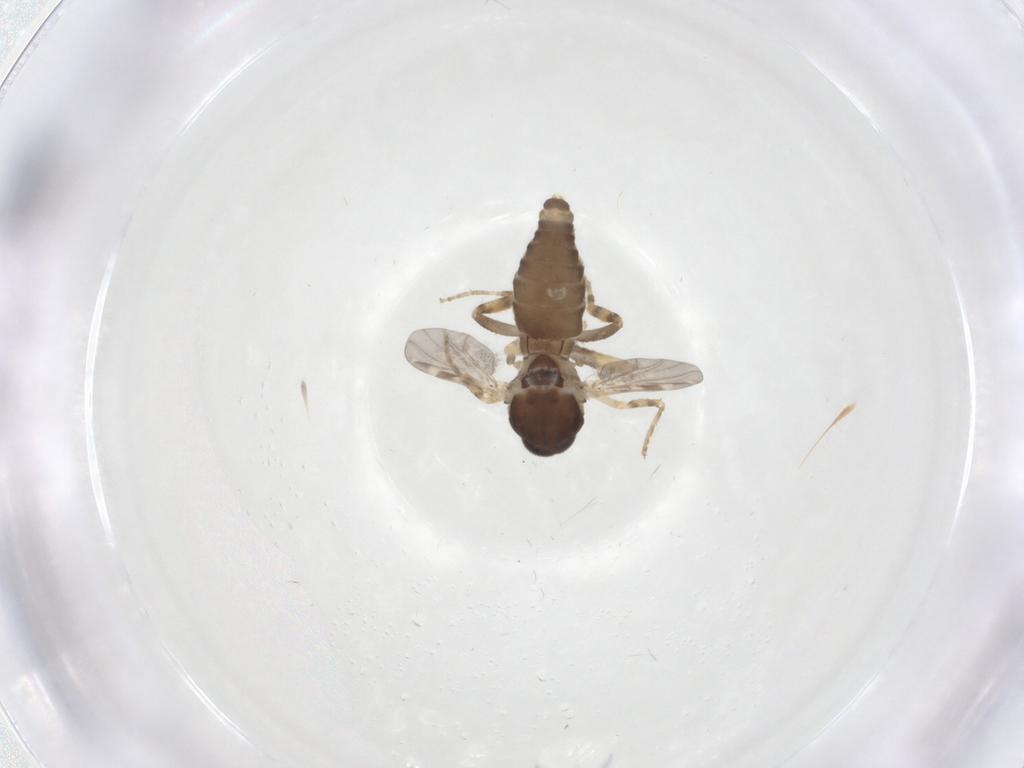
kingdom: Animalia
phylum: Arthropoda
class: Insecta
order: Diptera
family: Ceratopogonidae
